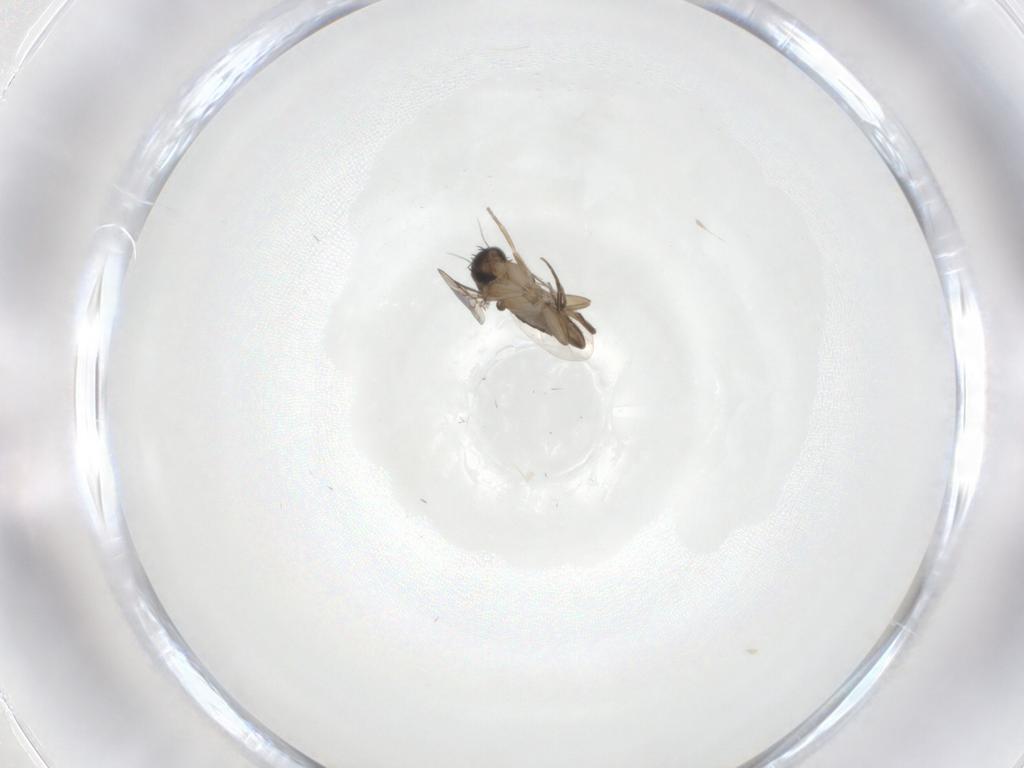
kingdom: Animalia
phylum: Arthropoda
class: Insecta
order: Diptera
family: Phoridae
